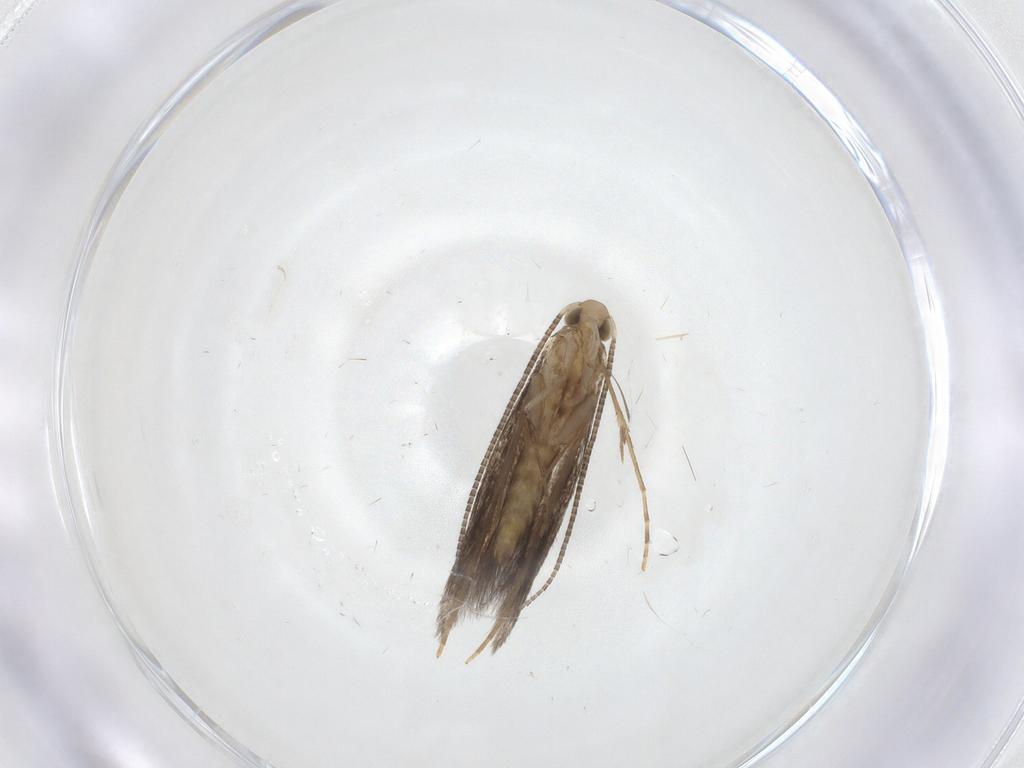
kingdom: Animalia
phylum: Arthropoda
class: Insecta
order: Lepidoptera
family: Gracillariidae
